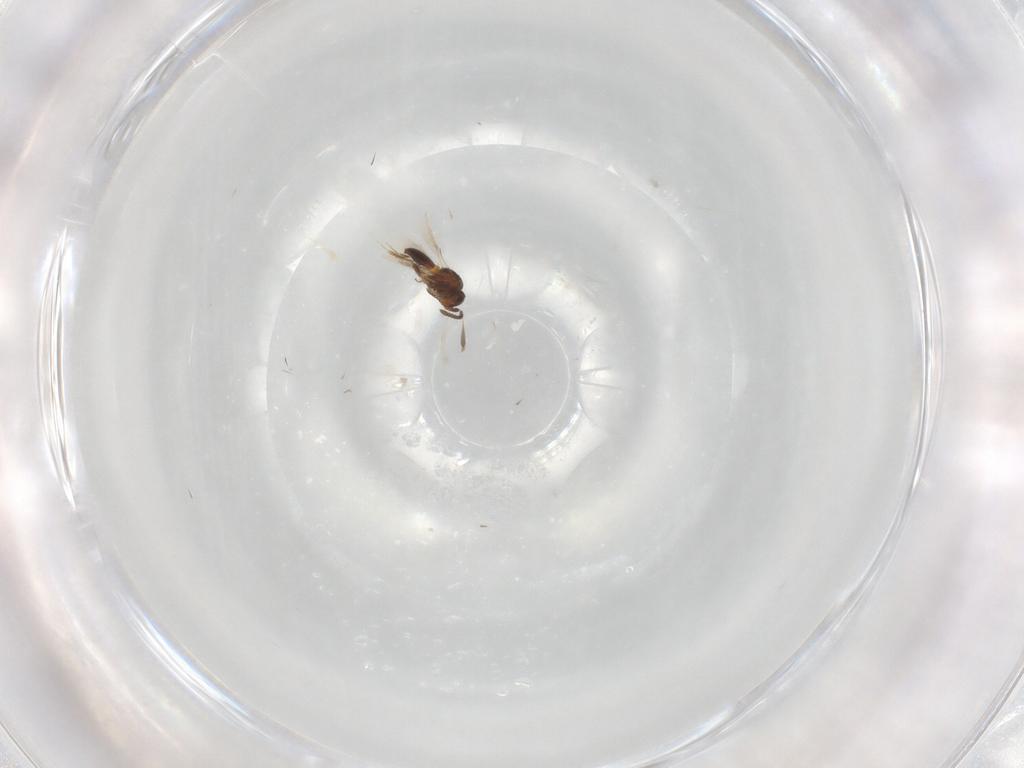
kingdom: Animalia
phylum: Arthropoda
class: Insecta
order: Hymenoptera
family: Scelionidae
